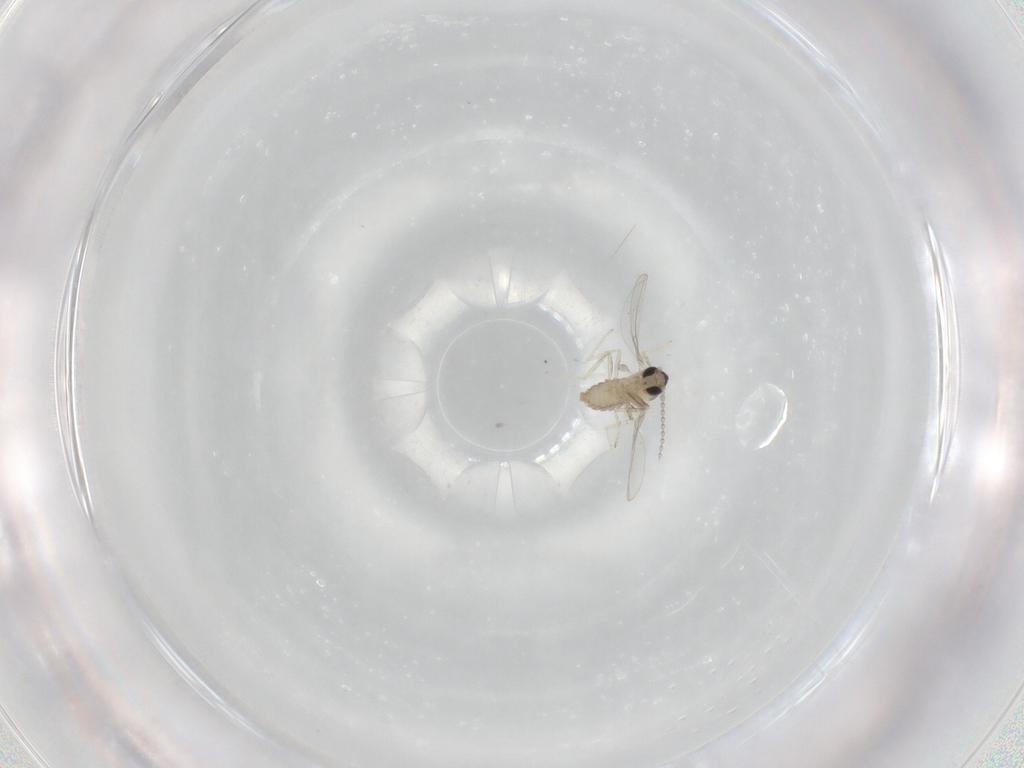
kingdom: Animalia
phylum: Arthropoda
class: Insecta
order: Diptera
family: Cecidomyiidae
